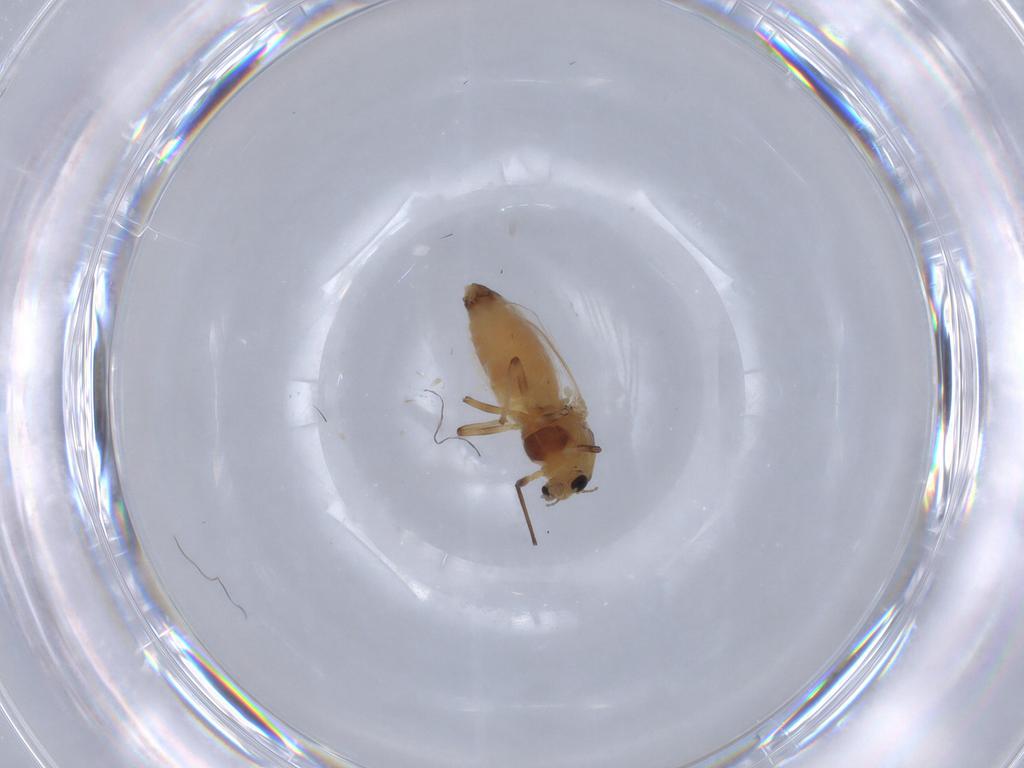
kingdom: Animalia
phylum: Arthropoda
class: Insecta
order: Diptera
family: Chironomidae
